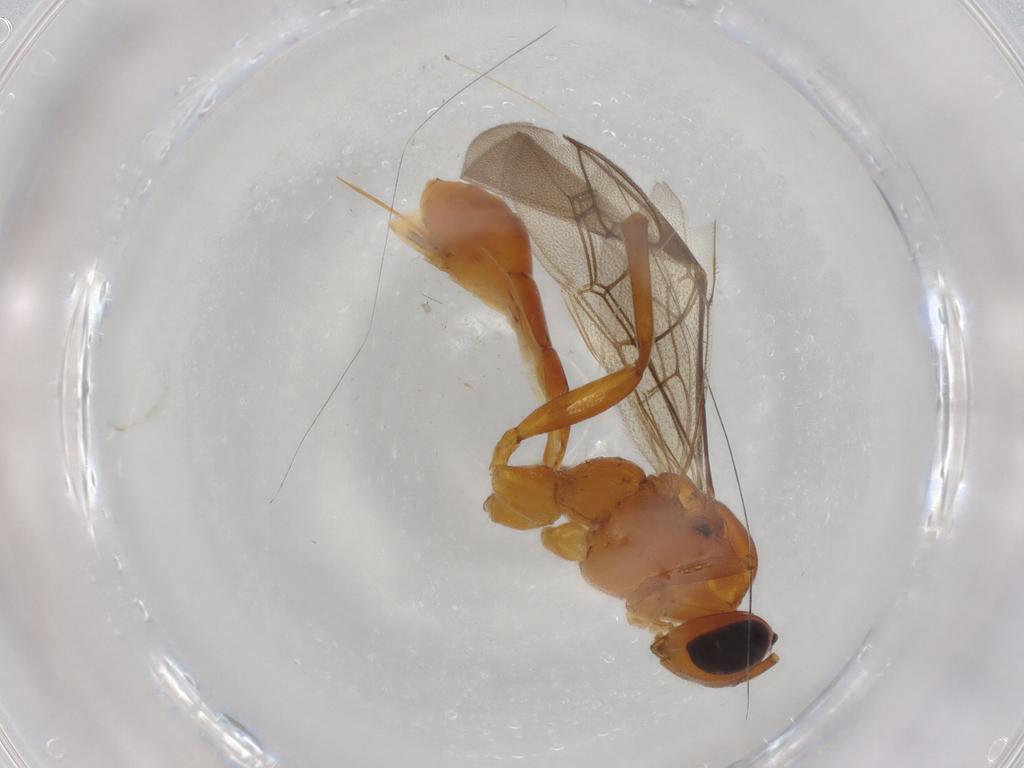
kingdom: Animalia
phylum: Arthropoda
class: Insecta
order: Hymenoptera
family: Ichneumonidae
